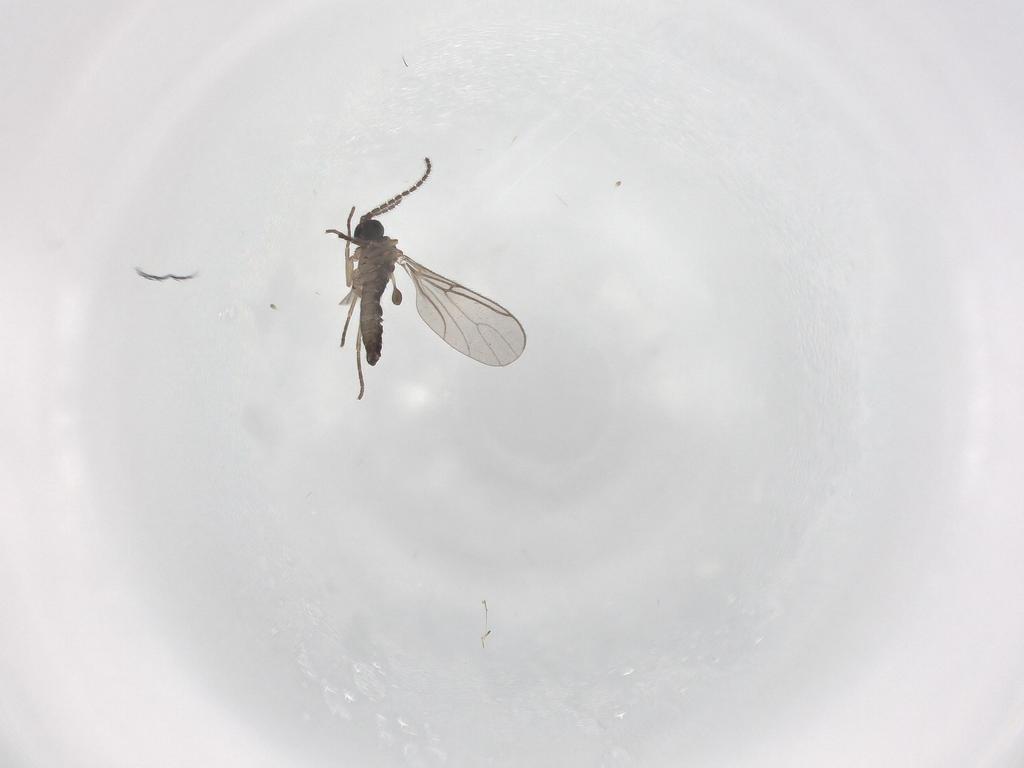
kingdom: Animalia
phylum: Arthropoda
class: Insecta
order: Diptera
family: Sciaridae
